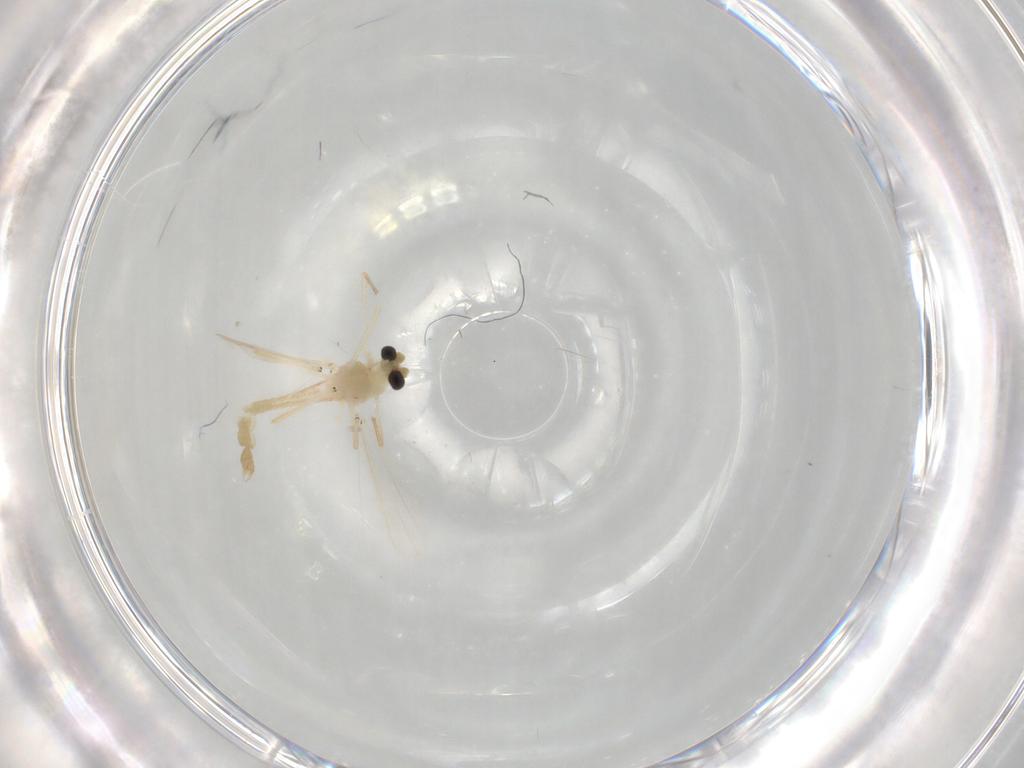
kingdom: Animalia
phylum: Arthropoda
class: Insecta
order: Diptera
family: Chironomidae
